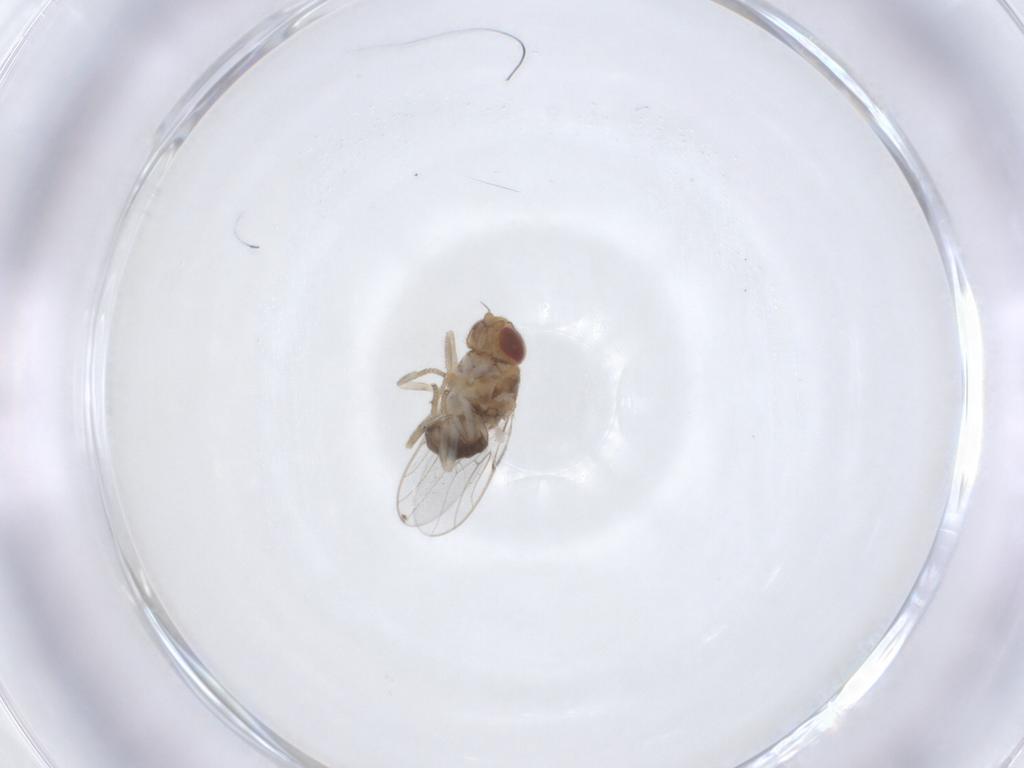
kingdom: Animalia
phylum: Arthropoda
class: Insecta
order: Diptera
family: Chloropidae
